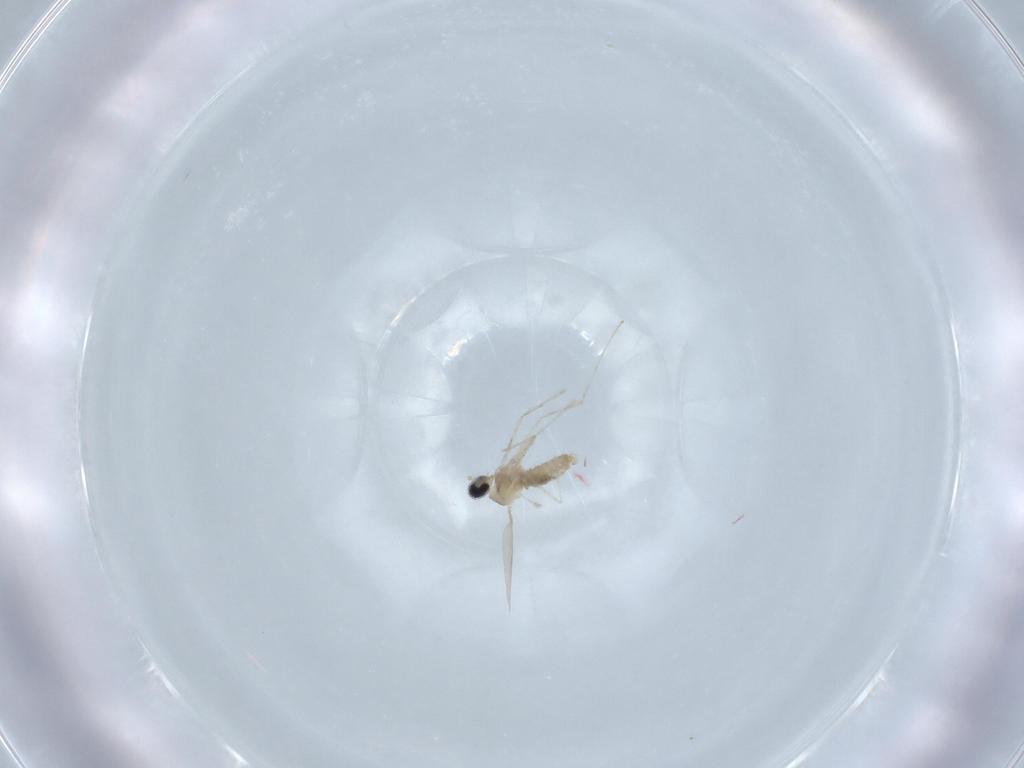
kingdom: Animalia
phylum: Arthropoda
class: Insecta
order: Diptera
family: Cecidomyiidae
